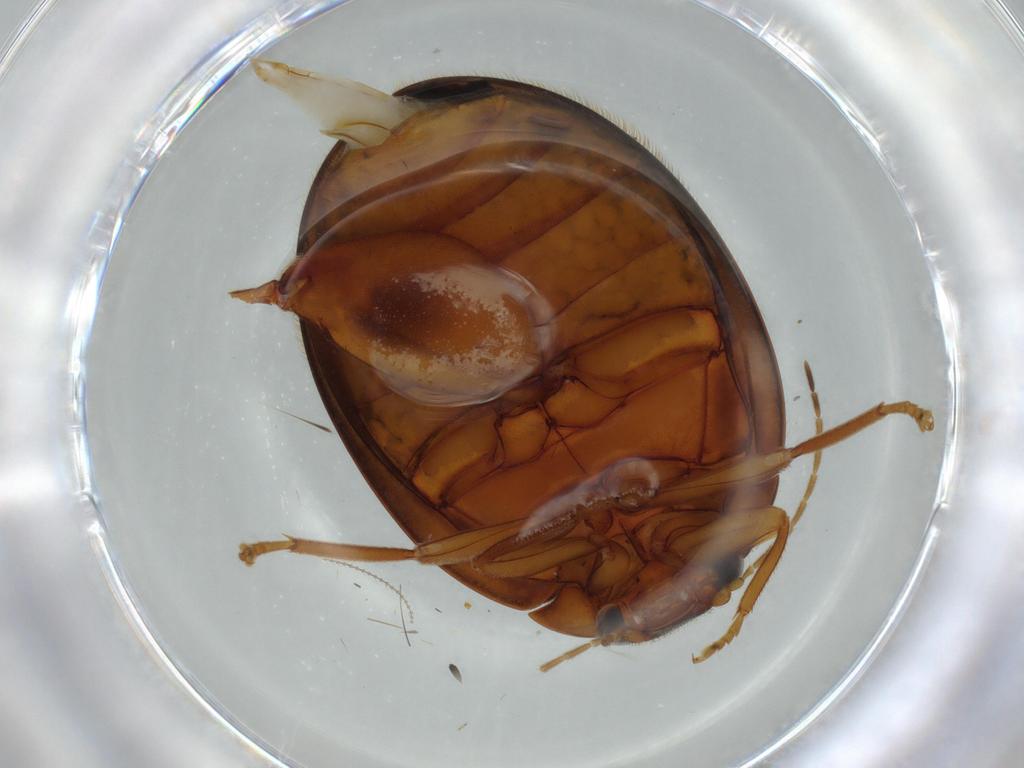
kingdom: Animalia
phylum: Arthropoda
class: Insecta
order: Coleoptera
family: Scirtidae
